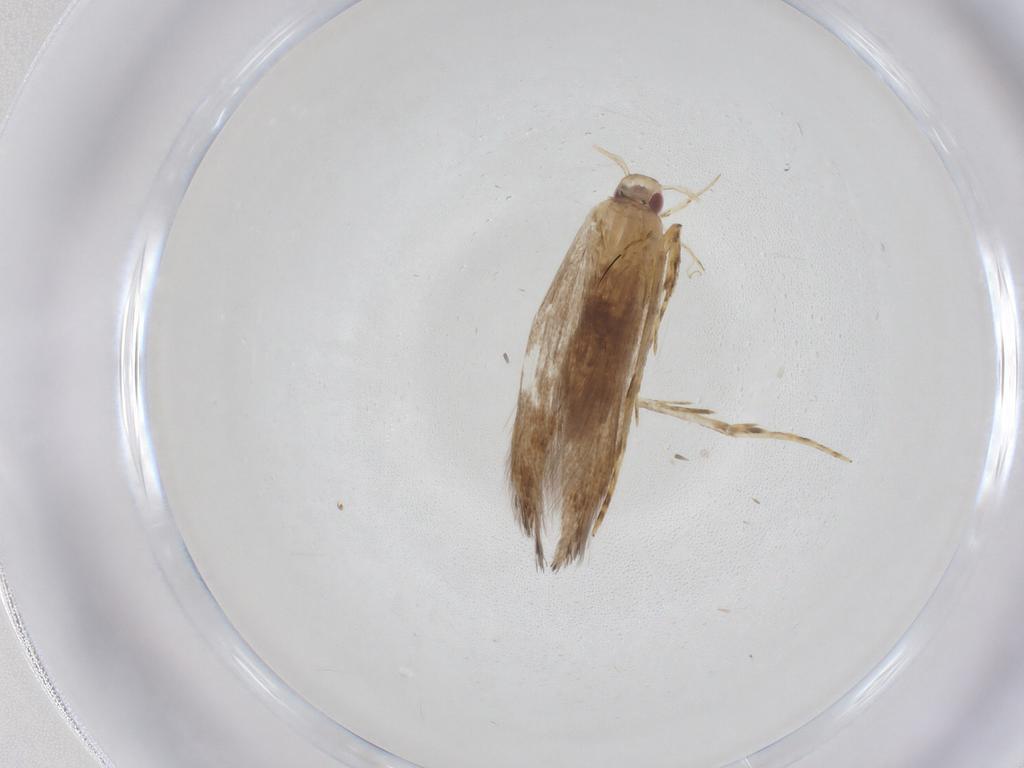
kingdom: Animalia
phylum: Arthropoda
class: Insecta
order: Lepidoptera
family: Cosmopterigidae
